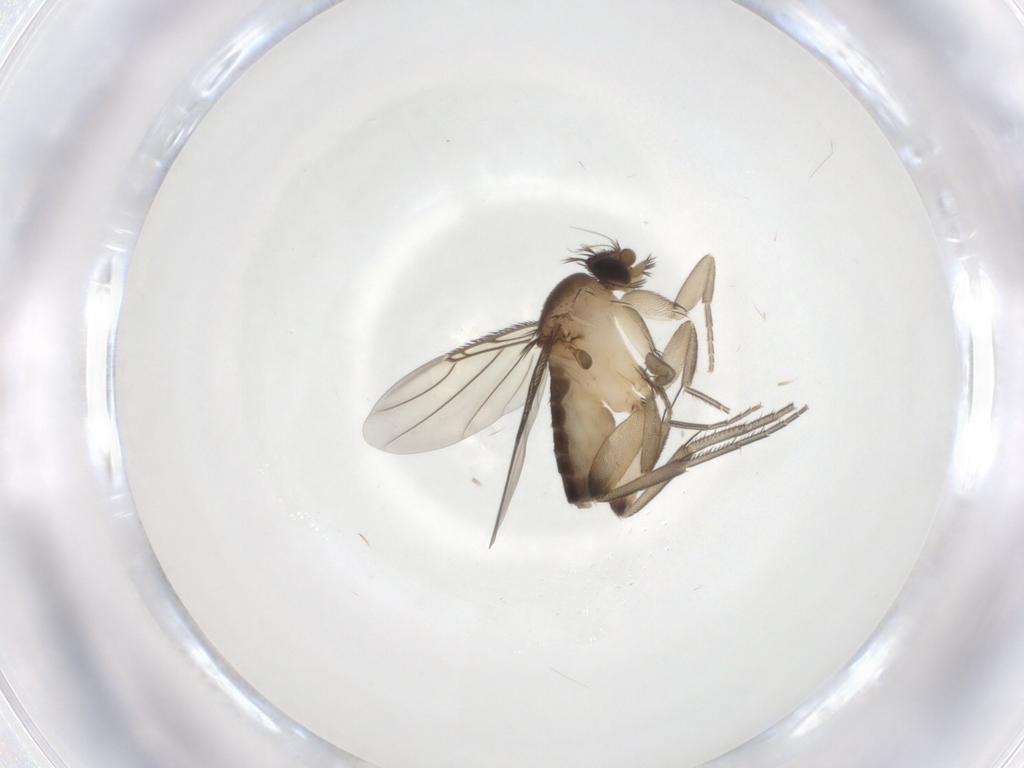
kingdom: Animalia
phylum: Arthropoda
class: Insecta
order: Diptera
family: Phoridae
